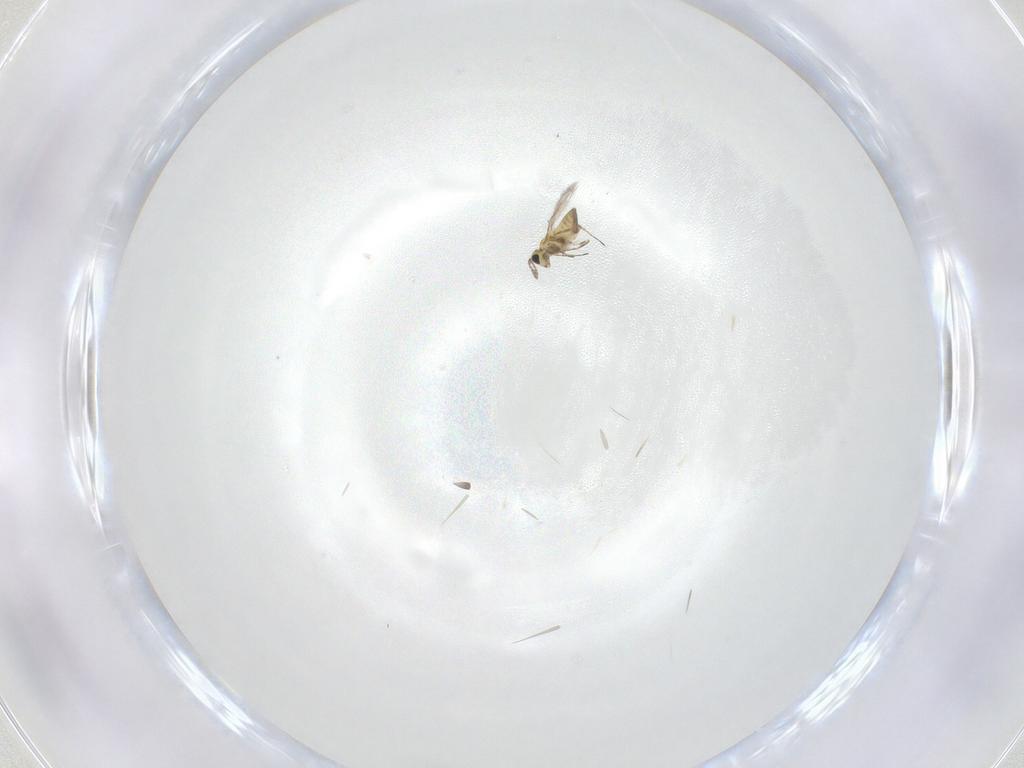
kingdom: Animalia
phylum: Arthropoda
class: Insecta
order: Hymenoptera
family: Trichogrammatidae
